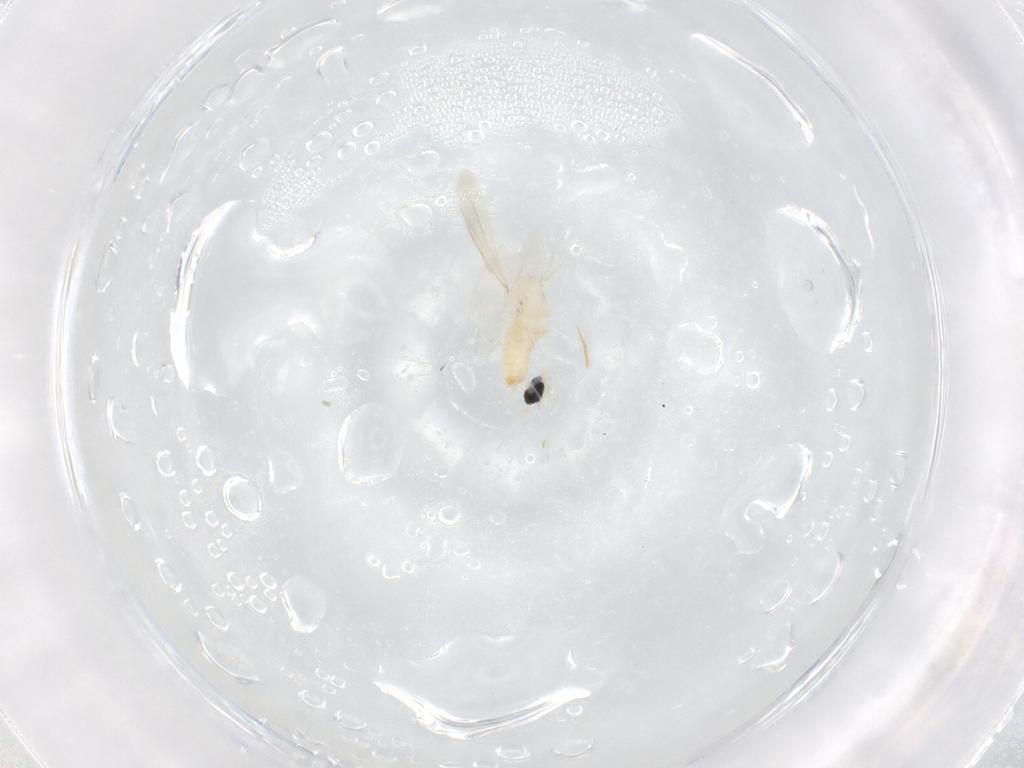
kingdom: Animalia
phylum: Arthropoda
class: Insecta
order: Diptera
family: Cecidomyiidae
